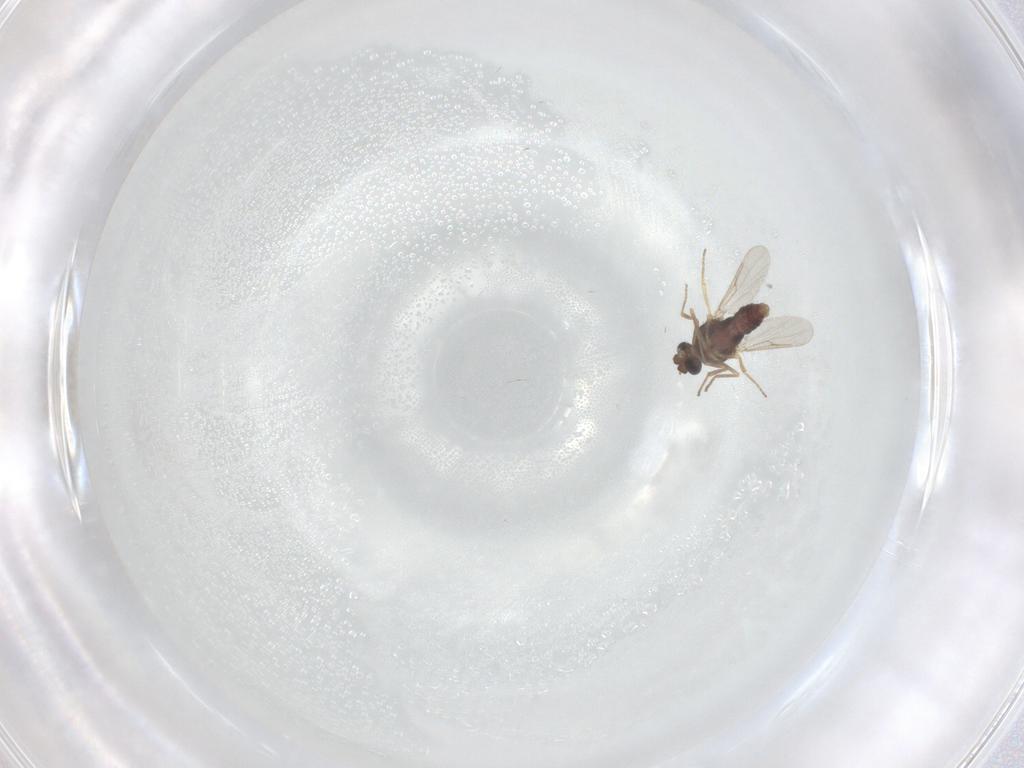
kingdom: Animalia
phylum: Arthropoda
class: Insecta
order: Diptera
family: Ceratopogonidae
